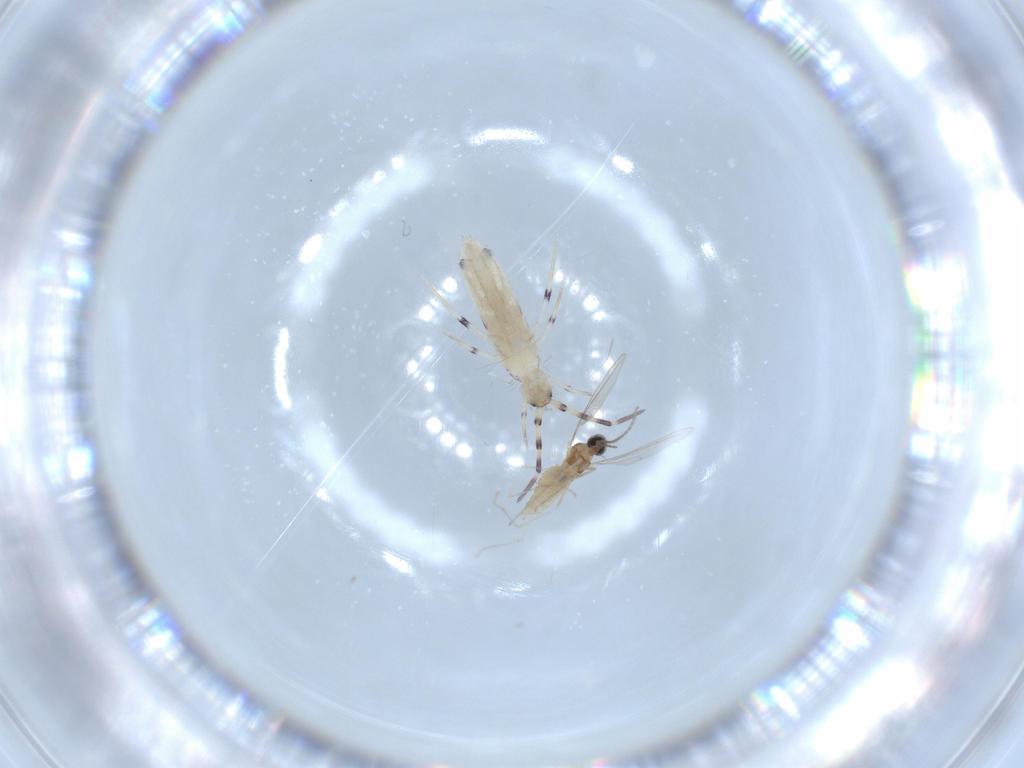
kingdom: Animalia
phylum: Arthropoda
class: Collembola
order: Entomobryomorpha
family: Entomobryidae
